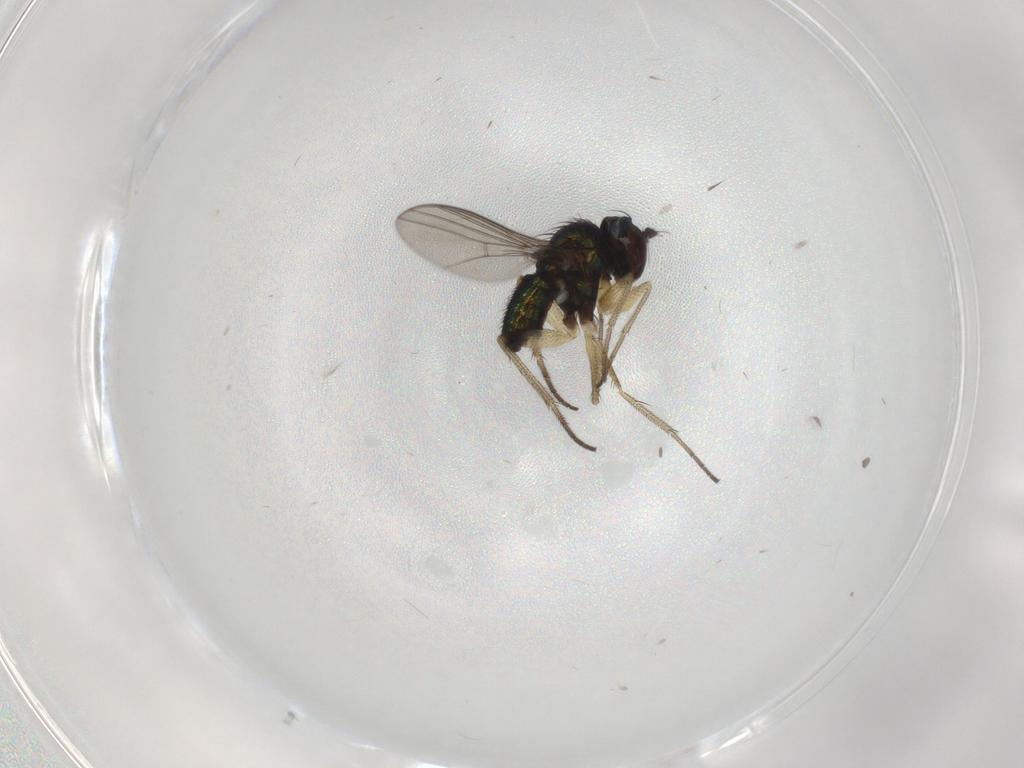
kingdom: Animalia
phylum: Arthropoda
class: Insecta
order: Diptera
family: Dolichopodidae
